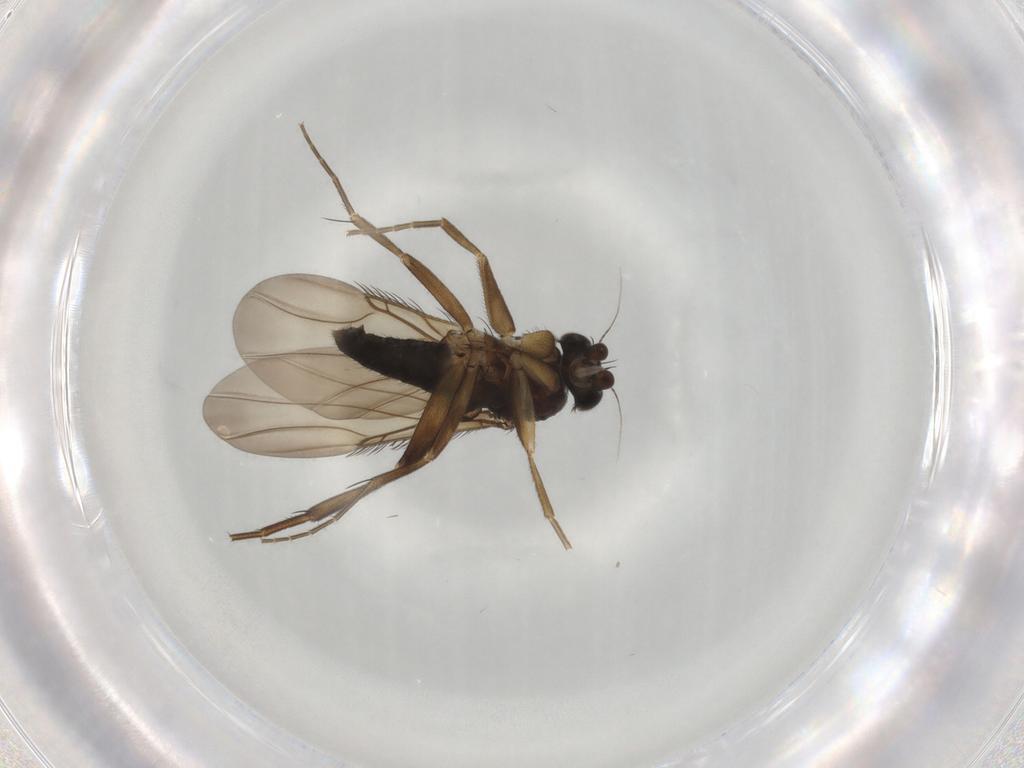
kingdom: Animalia
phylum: Arthropoda
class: Insecta
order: Diptera
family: Phoridae
